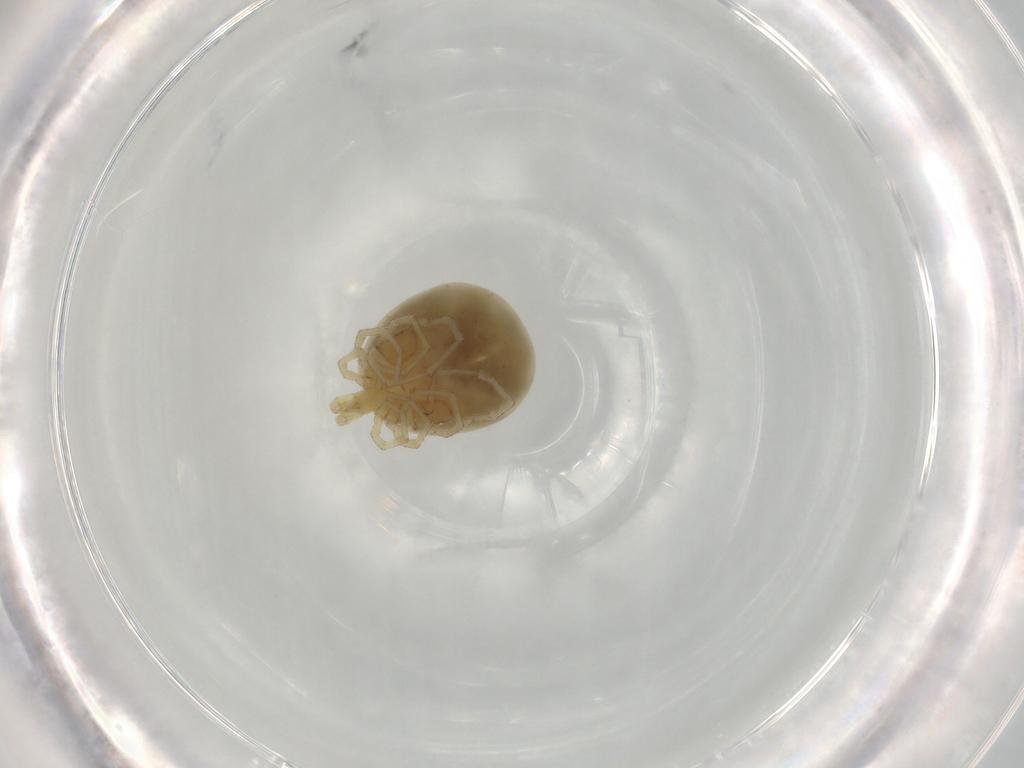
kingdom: Animalia
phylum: Arthropoda
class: Arachnida
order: Trombidiformes
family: Lebertiidae
